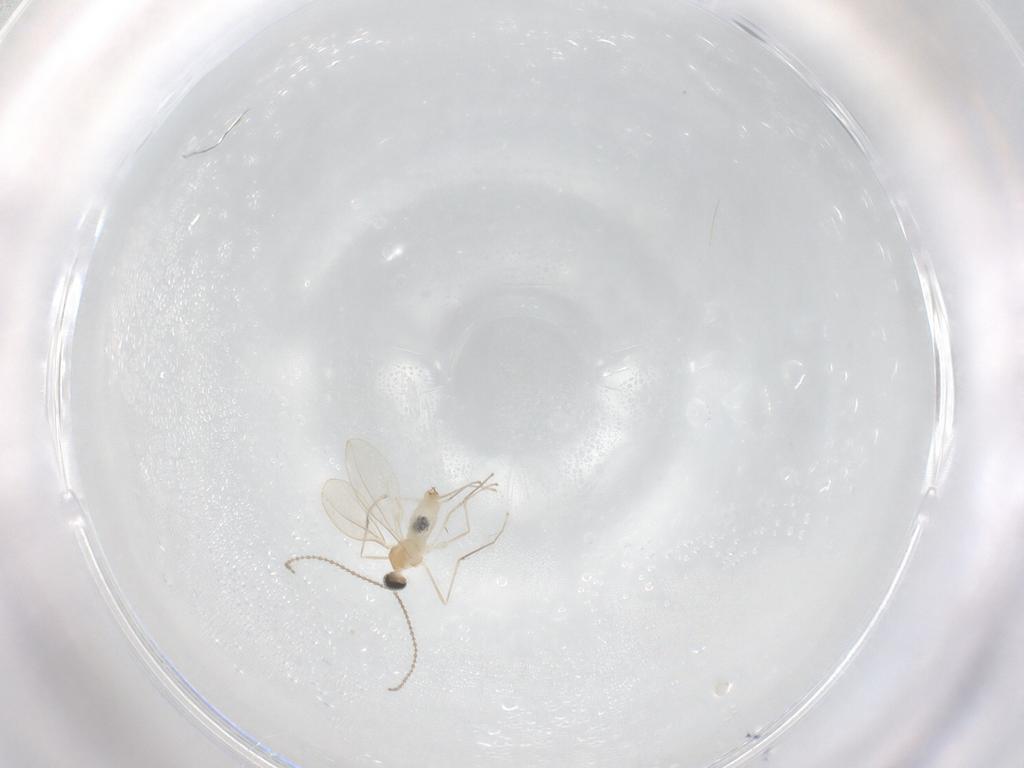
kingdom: Animalia
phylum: Arthropoda
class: Insecta
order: Diptera
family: Cecidomyiidae
